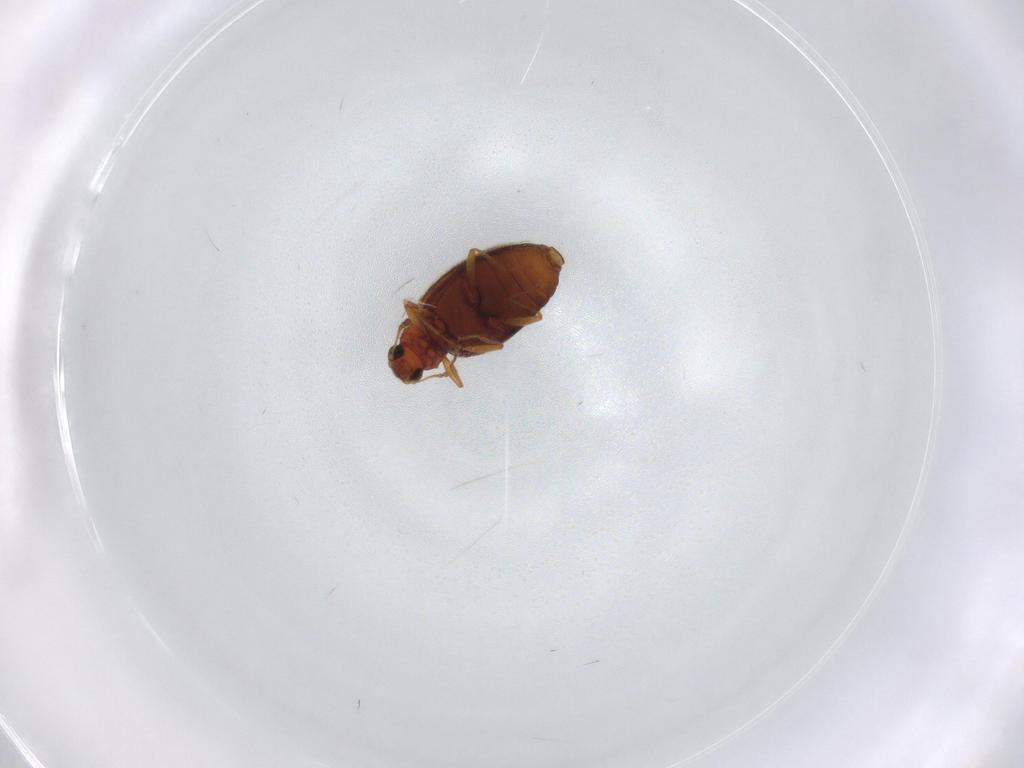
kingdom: Animalia
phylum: Arthropoda
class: Insecta
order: Coleoptera
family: Latridiidae
